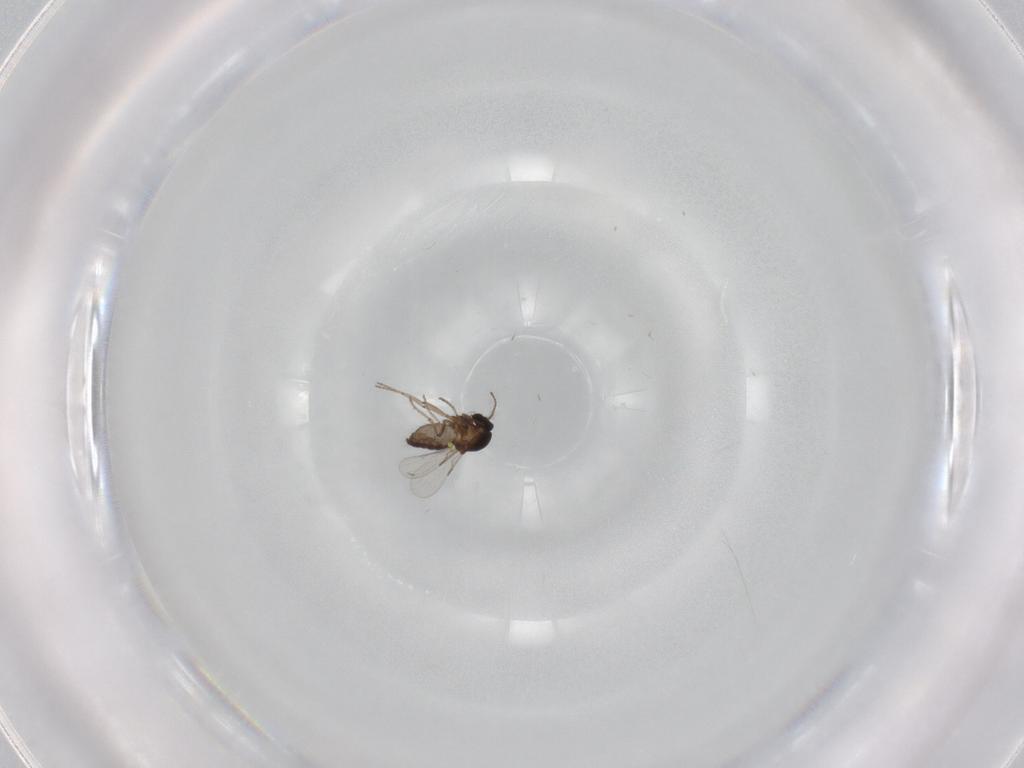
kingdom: Animalia
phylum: Arthropoda
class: Insecta
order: Diptera
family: Ceratopogonidae
